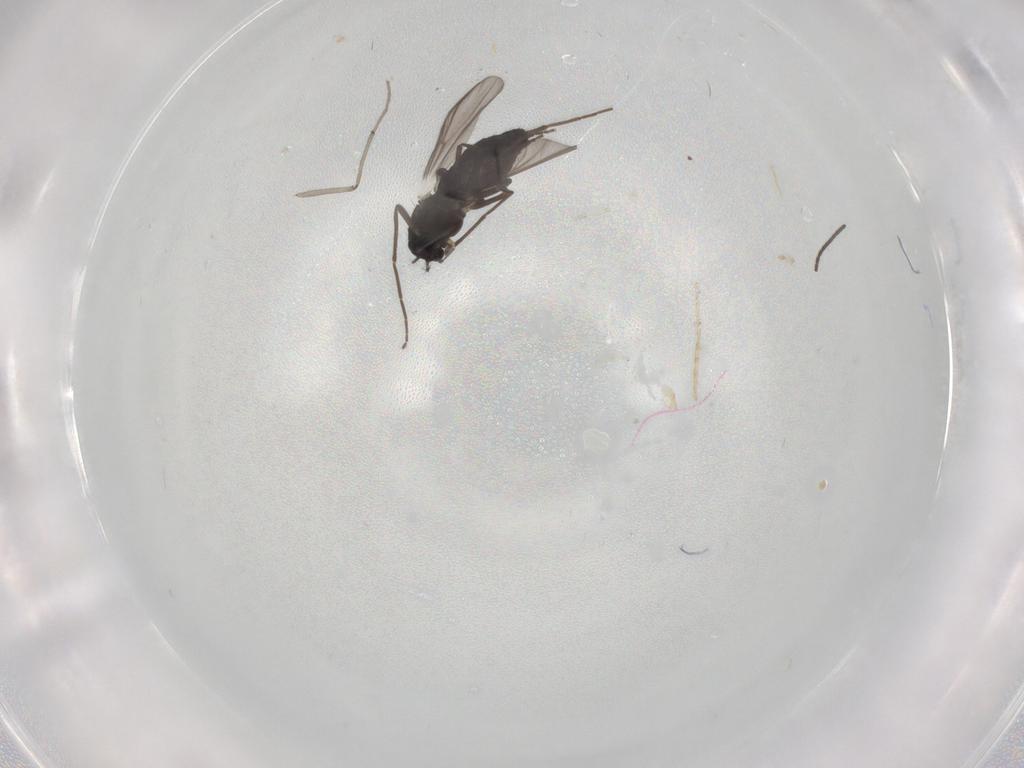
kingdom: Animalia
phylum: Arthropoda
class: Insecta
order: Diptera
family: Chironomidae
